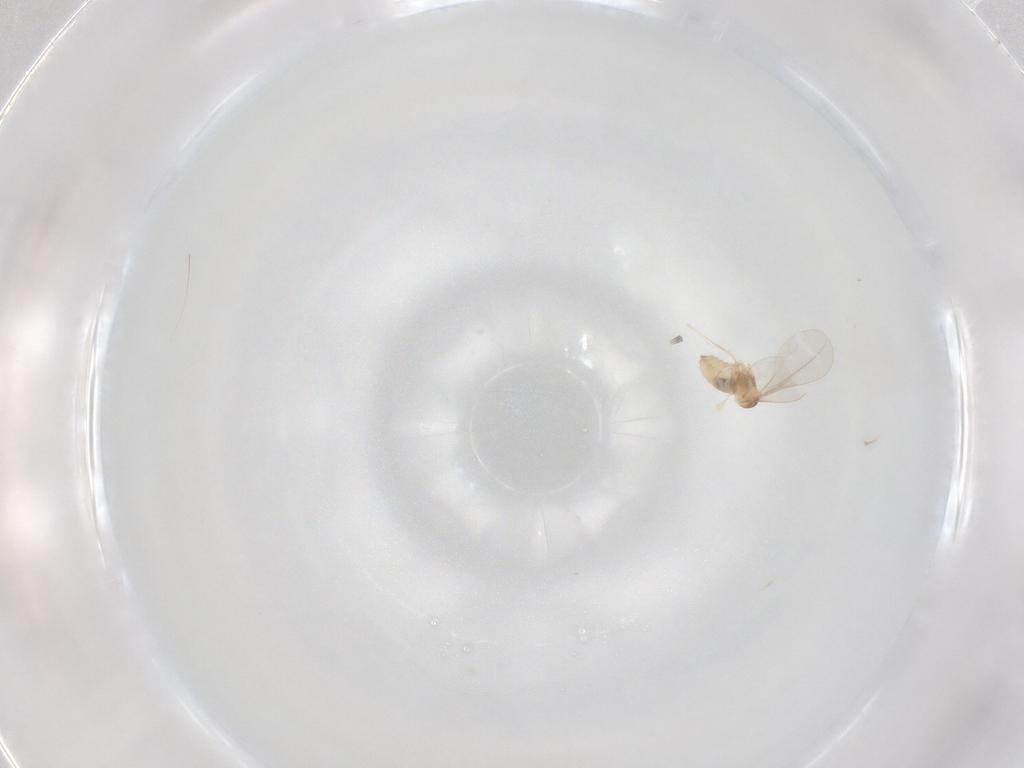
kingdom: Animalia
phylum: Arthropoda
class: Insecta
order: Diptera
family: Cecidomyiidae
